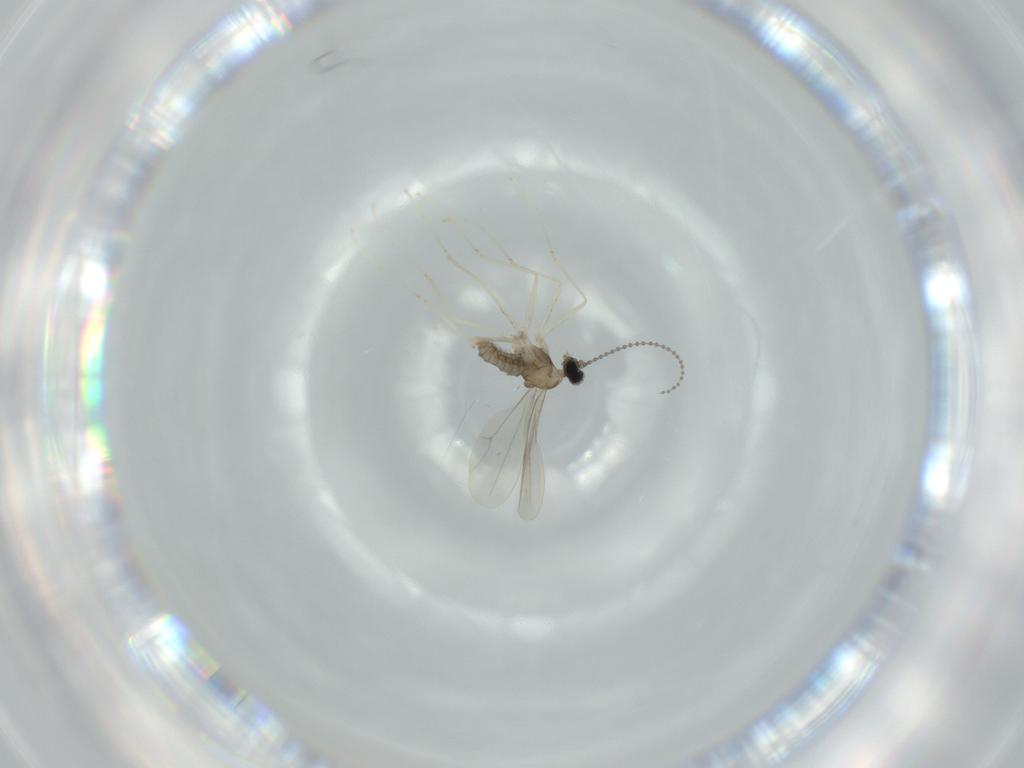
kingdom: Animalia
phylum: Arthropoda
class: Insecta
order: Diptera
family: Cecidomyiidae
